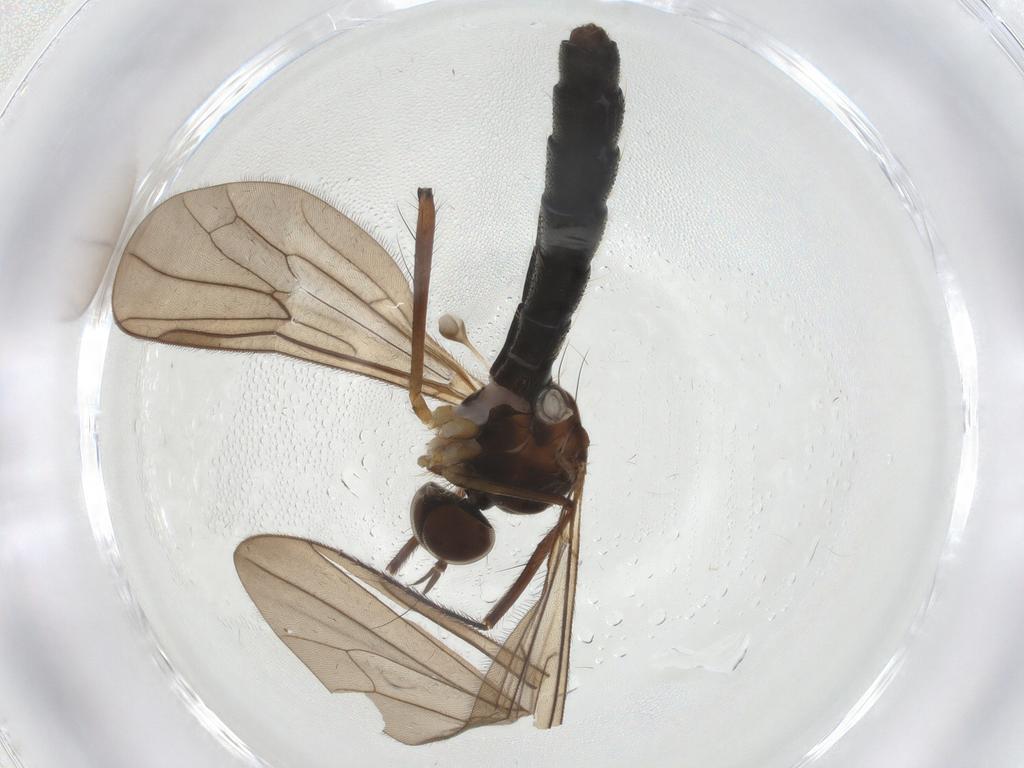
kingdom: Animalia
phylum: Arthropoda
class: Insecta
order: Diptera
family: Hybotidae
